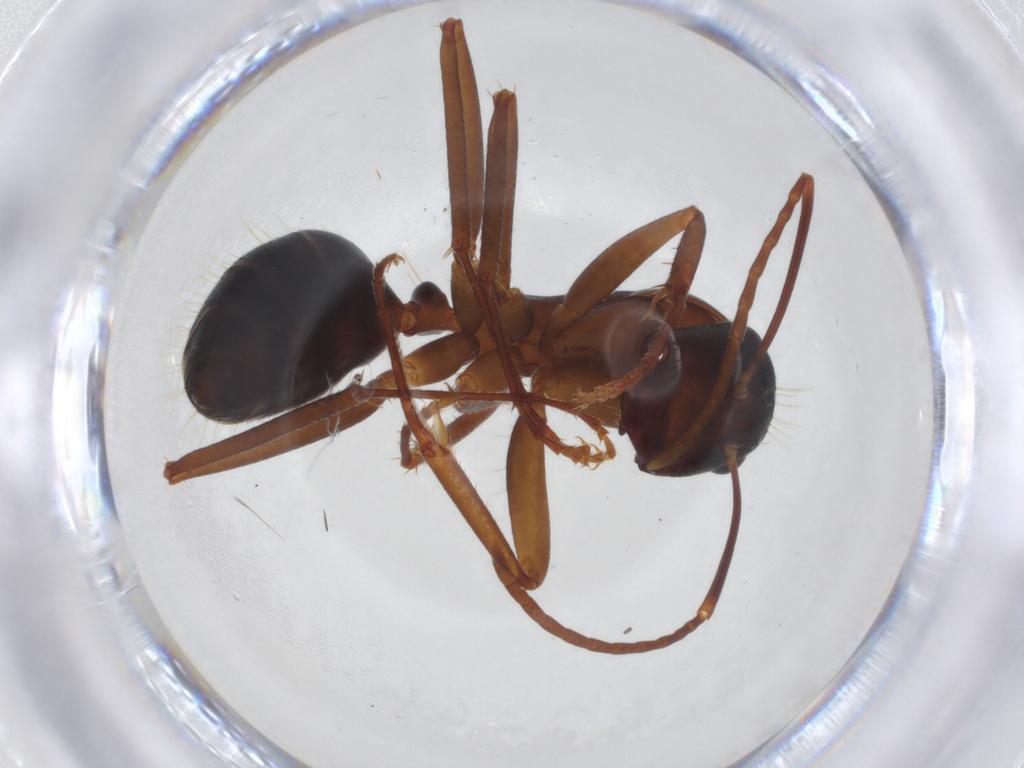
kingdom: Animalia
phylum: Arthropoda
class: Insecta
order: Hymenoptera
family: Formicidae
